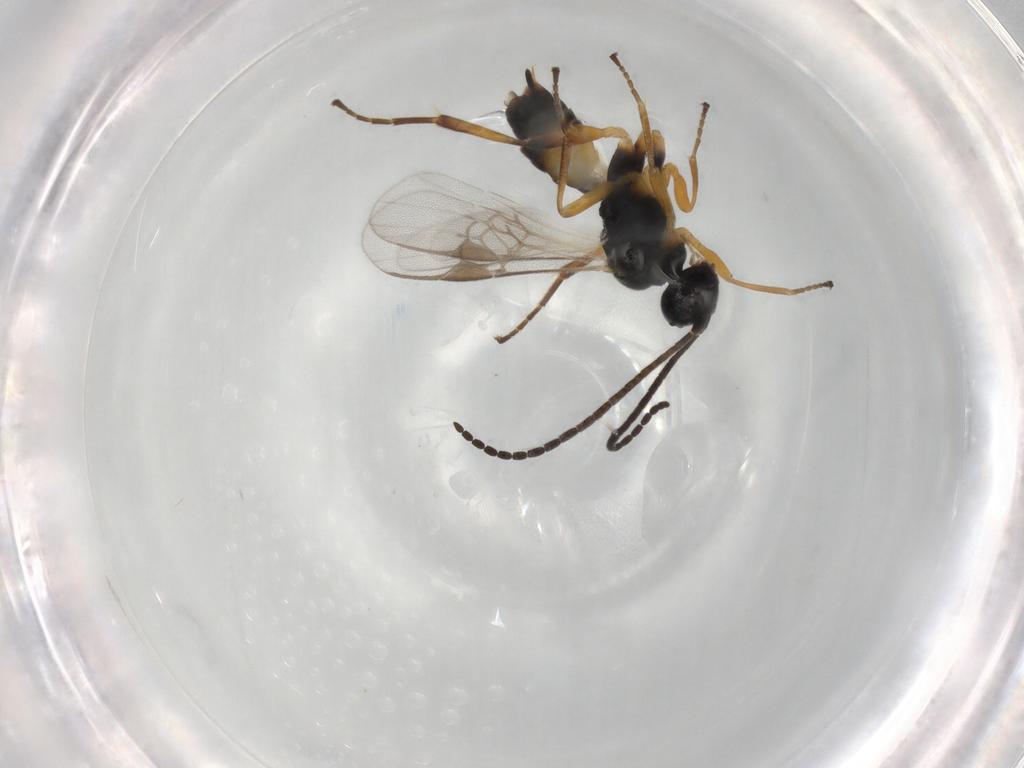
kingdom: Animalia
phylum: Arthropoda
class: Insecta
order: Hymenoptera
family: Braconidae
